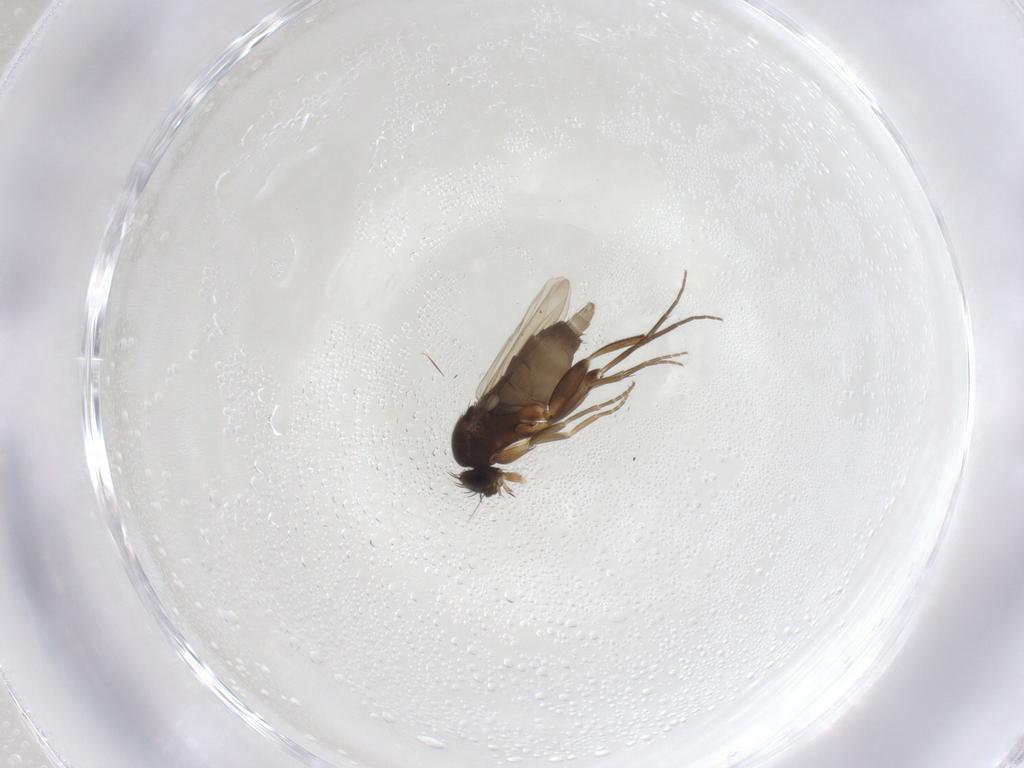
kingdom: Animalia
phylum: Arthropoda
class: Insecta
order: Diptera
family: Phoridae
